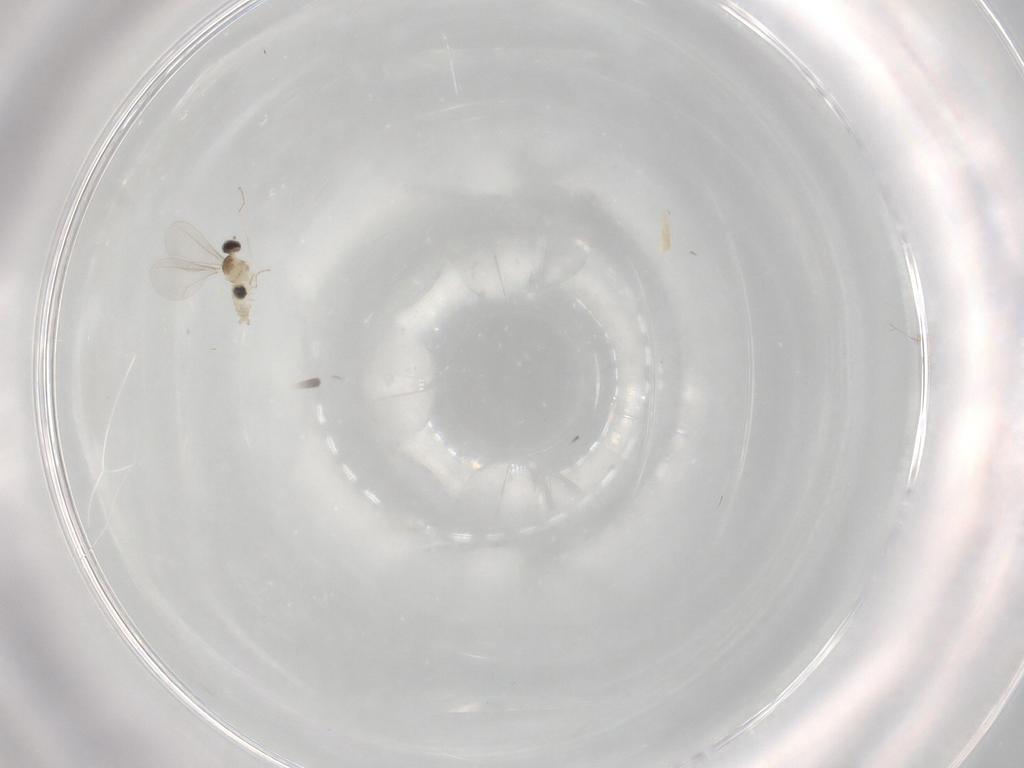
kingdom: Animalia
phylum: Arthropoda
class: Insecta
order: Diptera
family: Cecidomyiidae
